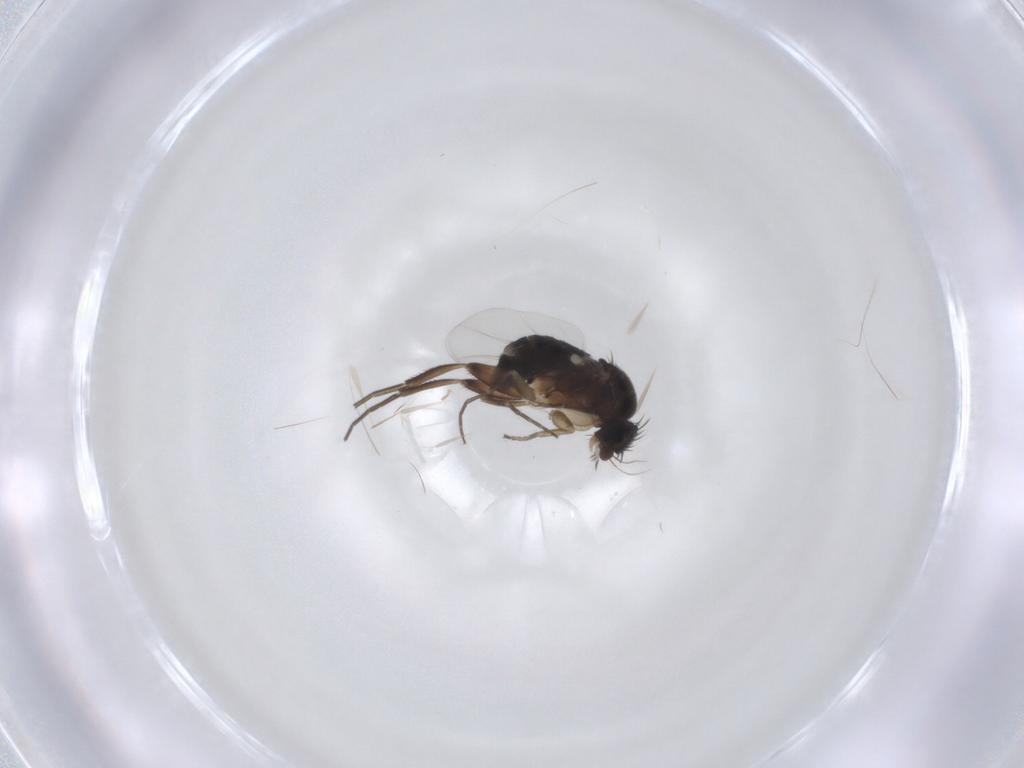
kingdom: Animalia
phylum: Arthropoda
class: Insecta
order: Diptera
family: Phoridae
